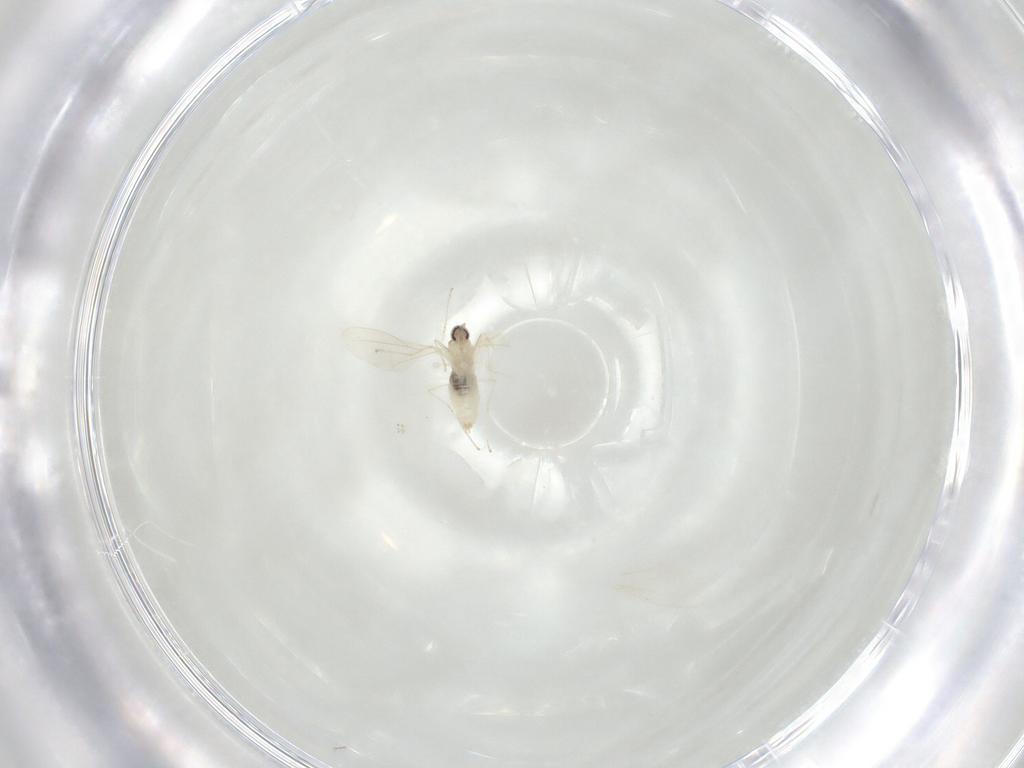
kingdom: Animalia
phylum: Arthropoda
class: Insecta
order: Diptera
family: Cecidomyiidae
